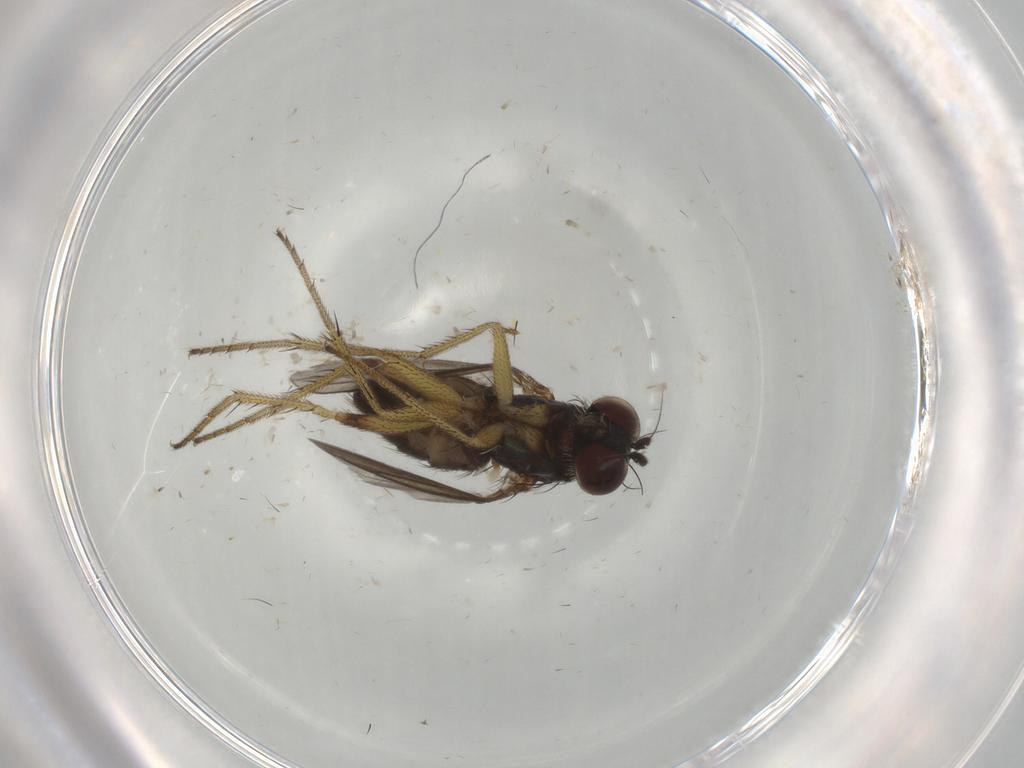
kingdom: Animalia
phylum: Arthropoda
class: Insecta
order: Diptera
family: Dolichopodidae
